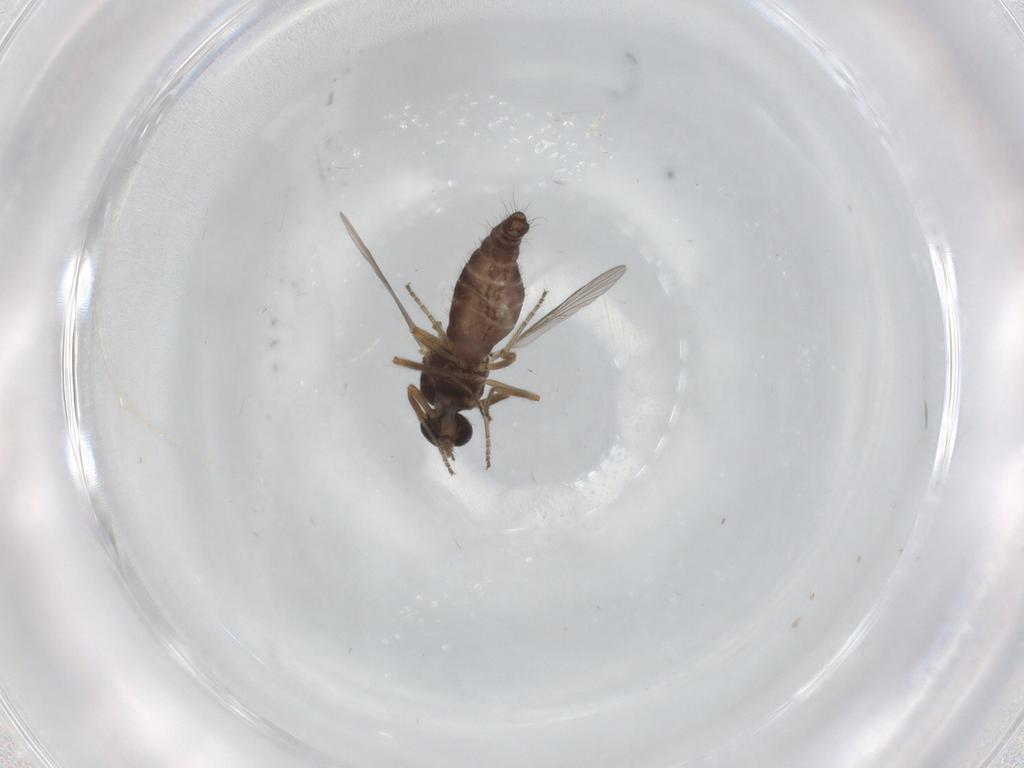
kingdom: Animalia
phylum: Arthropoda
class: Insecta
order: Diptera
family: Ceratopogonidae
